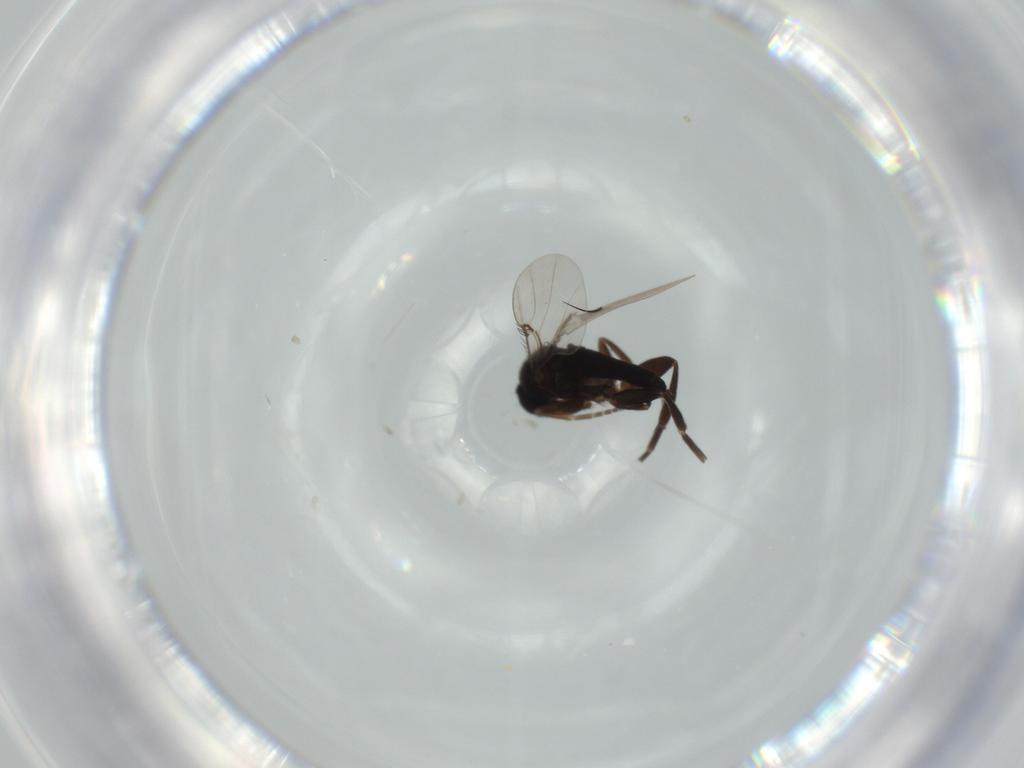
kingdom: Animalia
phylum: Arthropoda
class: Insecta
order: Diptera
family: Phoridae
